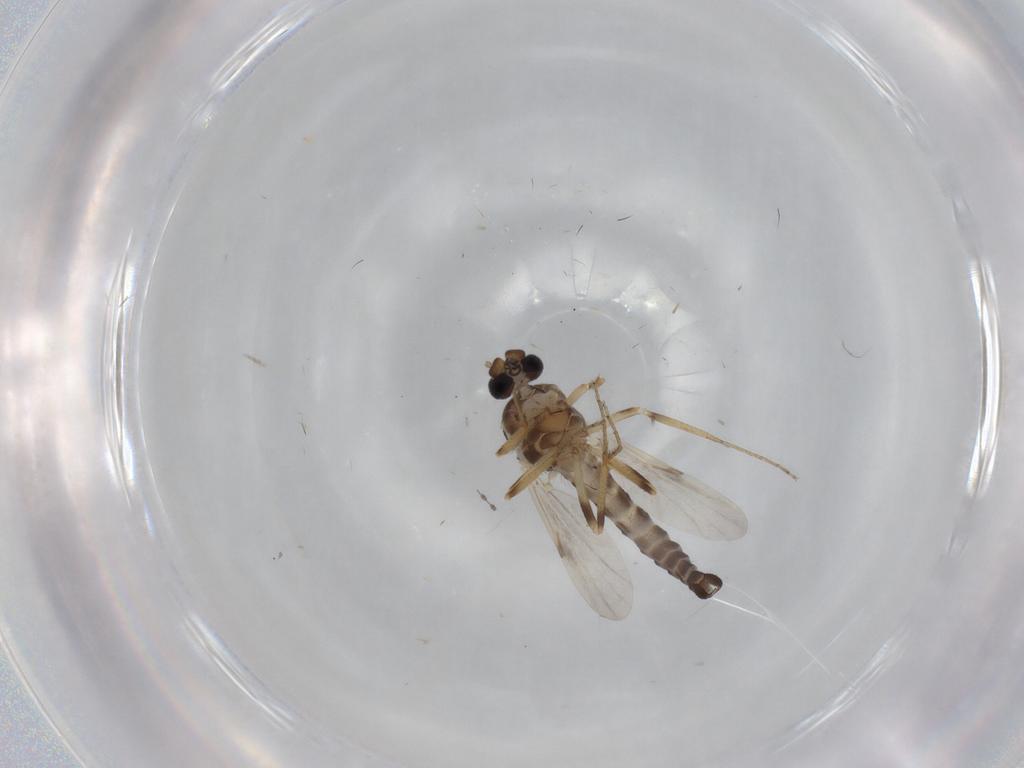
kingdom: Animalia
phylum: Arthropoda
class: Insecta
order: Diptera
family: Ceratopogonidae
